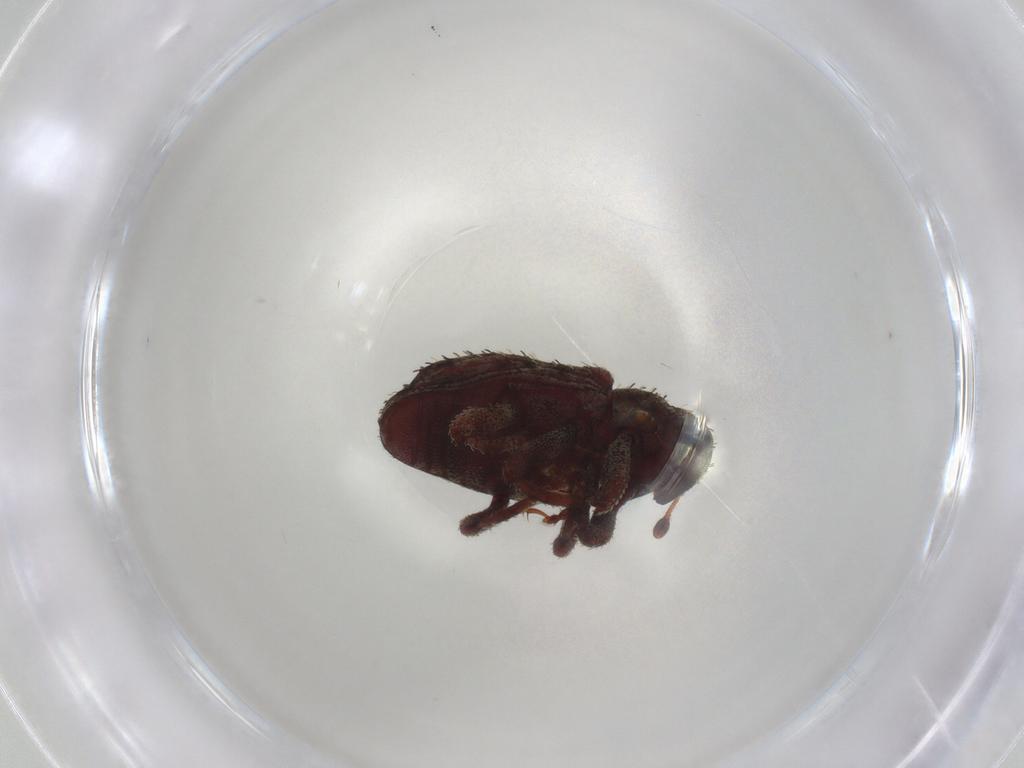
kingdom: Animalia
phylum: Arthropoda
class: Insecta
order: Coleoptera
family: Curculionidae
